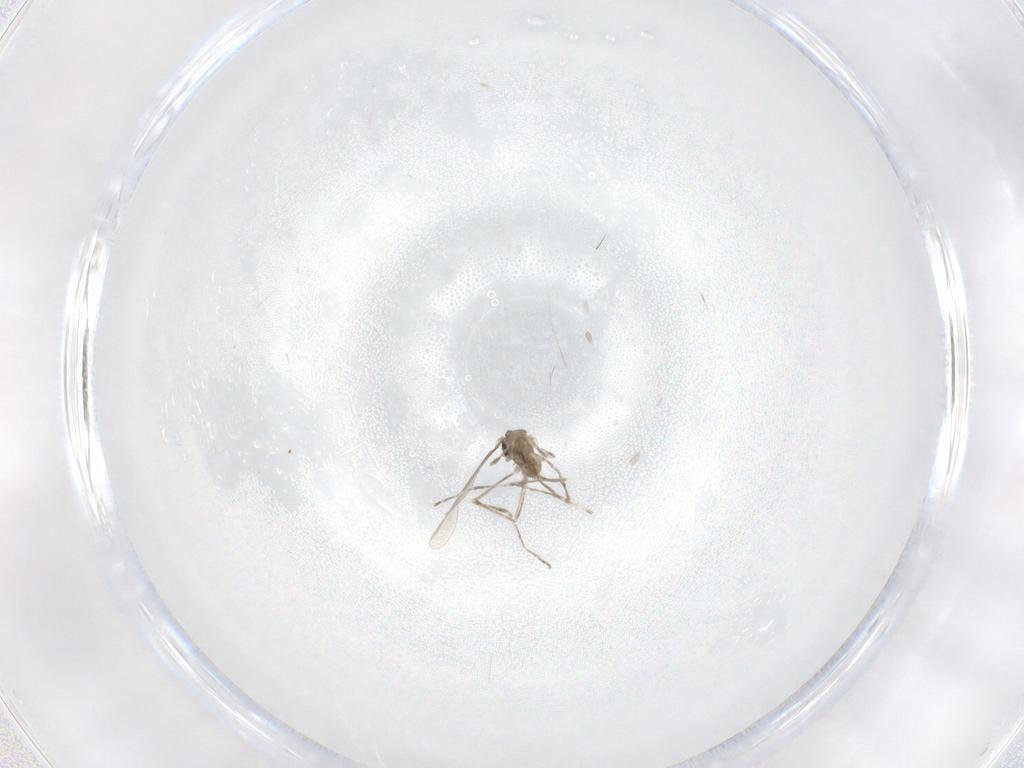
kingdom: Animalia
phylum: Arthropoda
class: Insecta
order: Diptera
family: Cecidomyiidae
